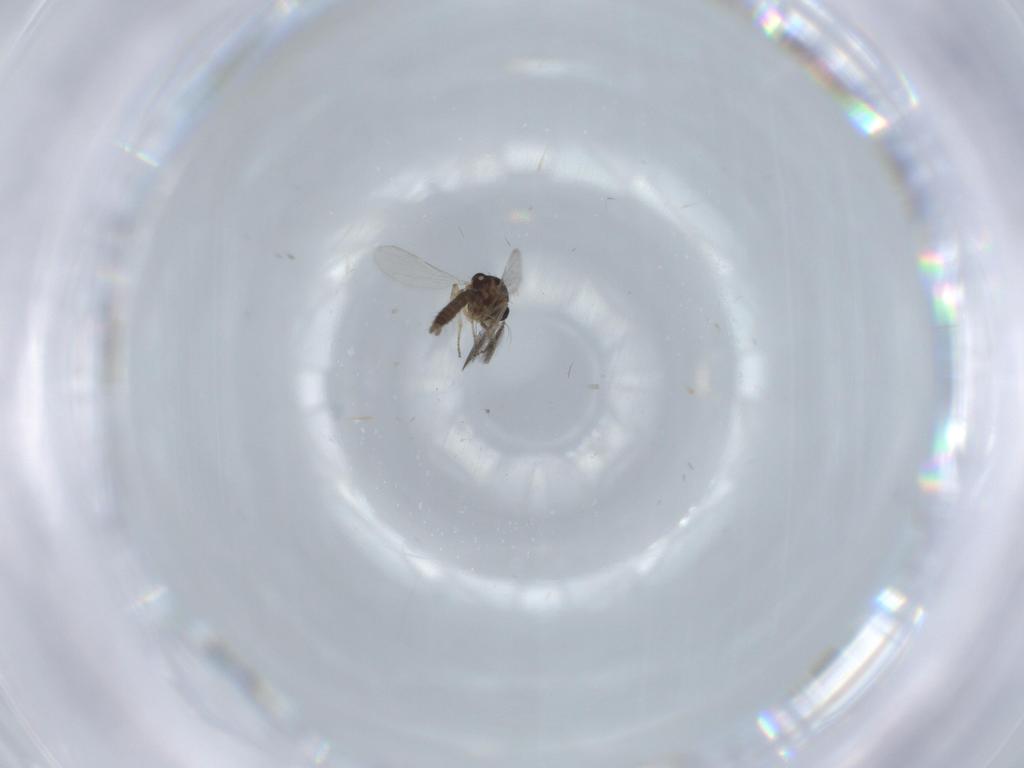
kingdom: Animalia
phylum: Arthropoda
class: Insecta
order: Diptera
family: Ceratopogonidae
